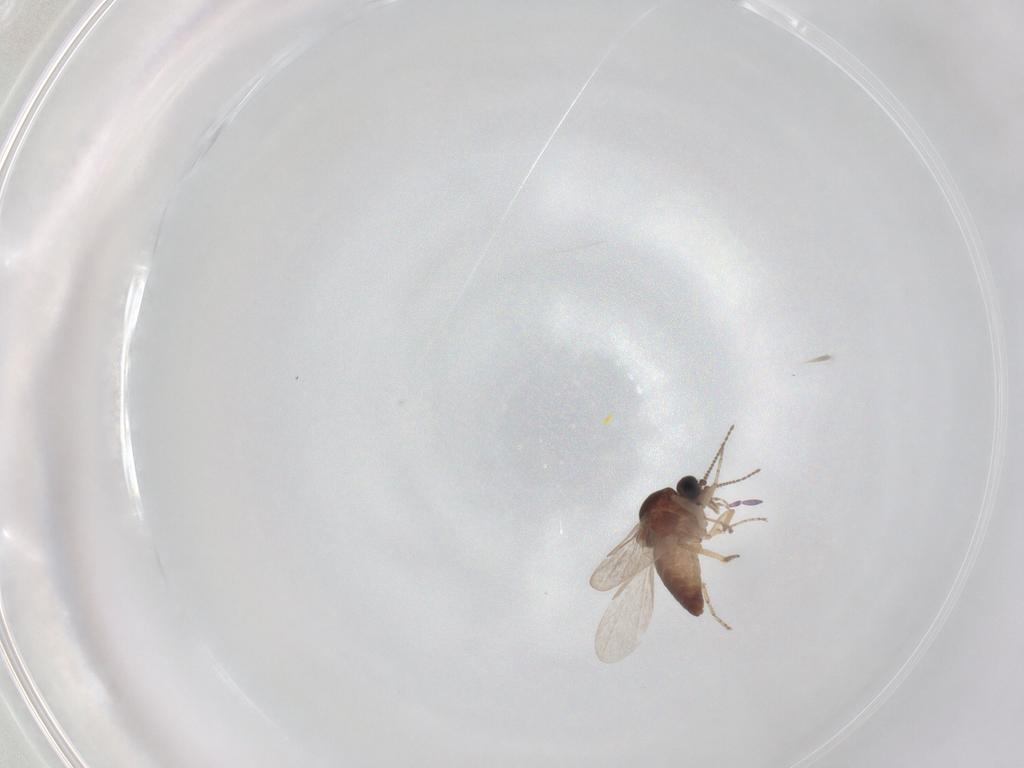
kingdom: Animalia
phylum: Arthropoda
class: Insecta
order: Diptera
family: Ceratopogonidae
